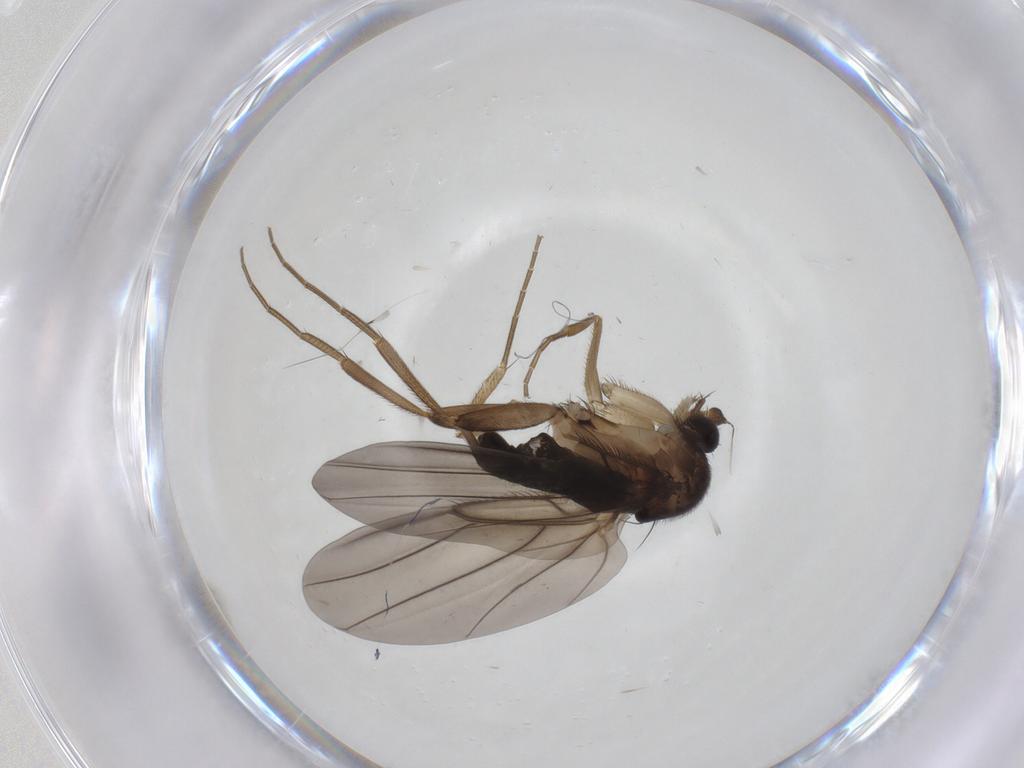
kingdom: Animalia
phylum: Arthropoda
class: Insecta
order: Diptera
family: Phoridae
